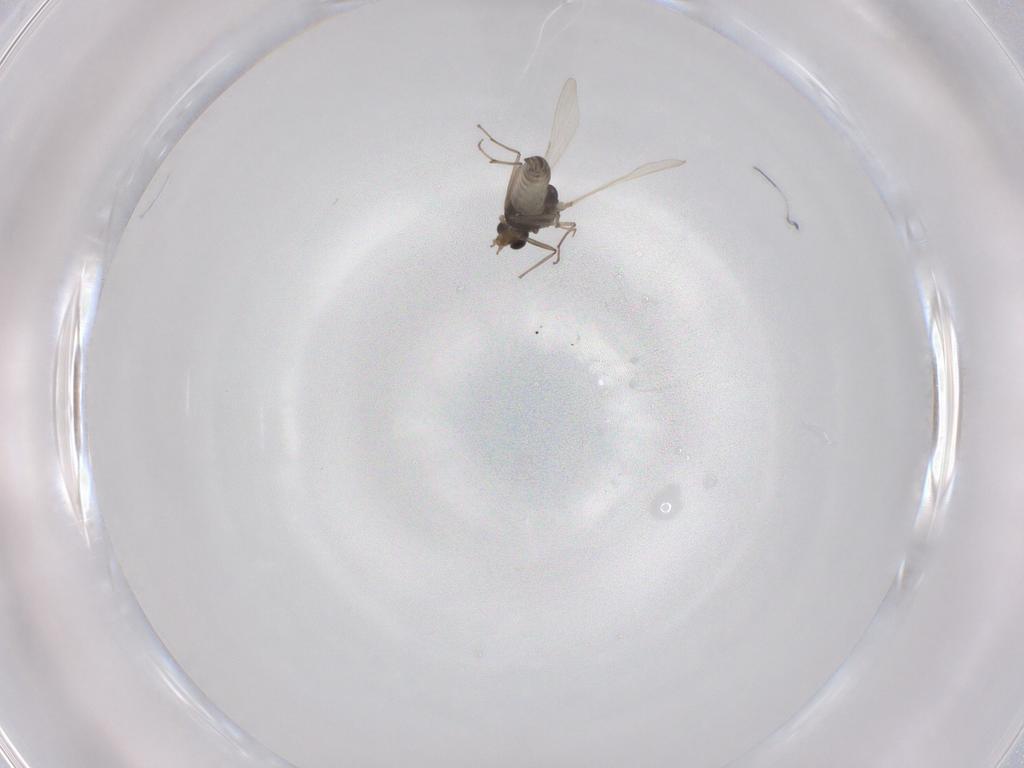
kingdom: Animalia
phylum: Arthropoda
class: Insecta
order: Diptera
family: Chironomidae
